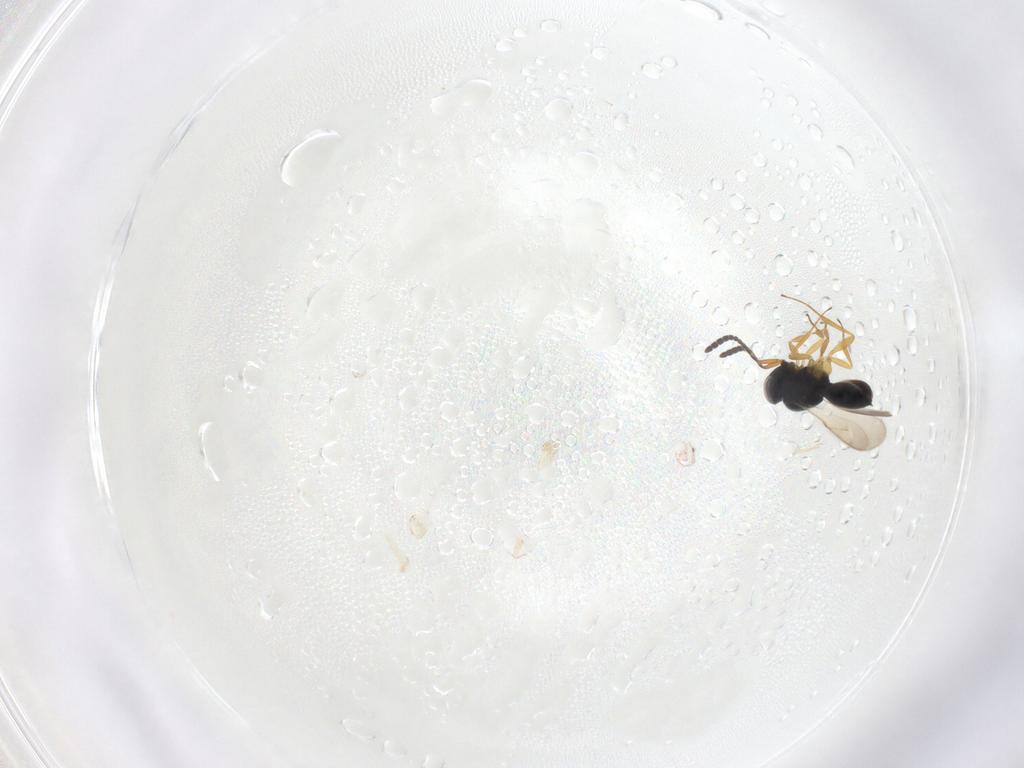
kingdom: Animalia
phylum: Arthropoda
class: Insecta
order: Hymenoptera
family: Scelionidae
